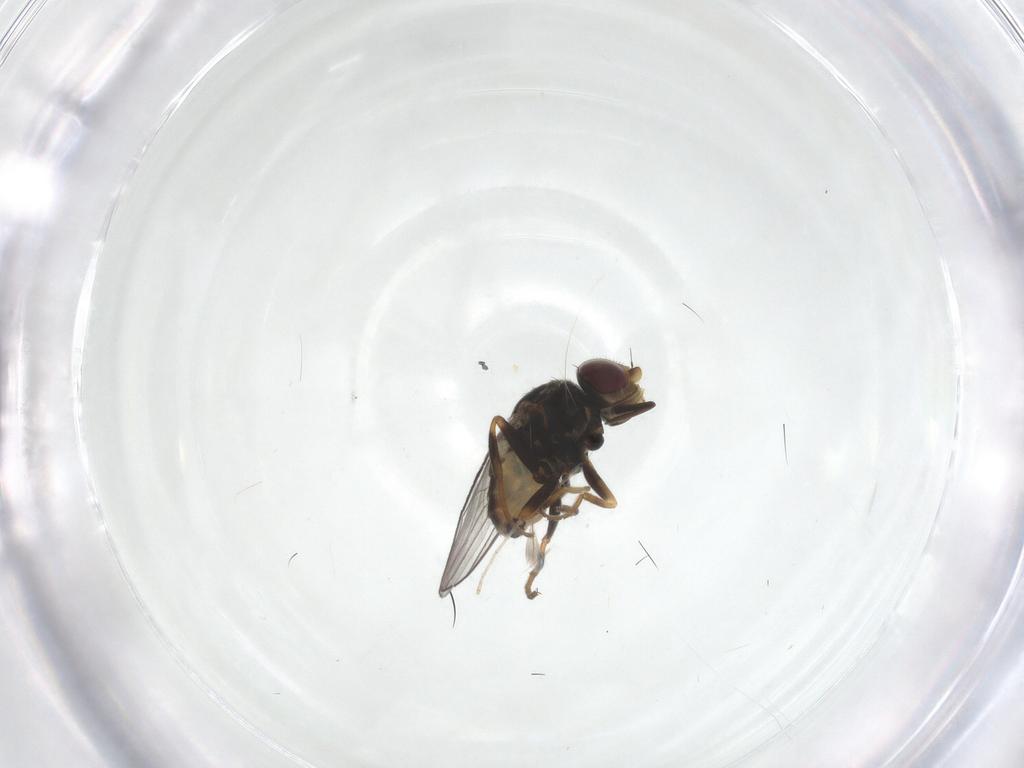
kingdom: Animalia
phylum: Arthropoda
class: Insecta
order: Diptera
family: Chloropidae
